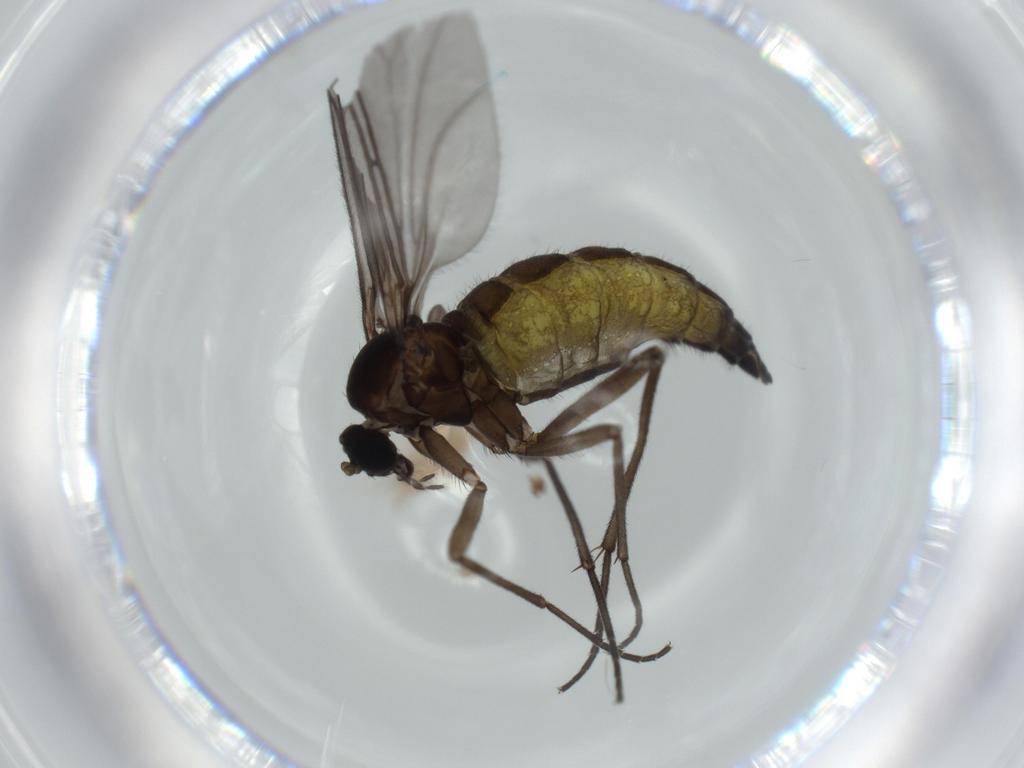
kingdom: Animalia
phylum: Arthropoda
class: Insecta
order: Diptera
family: Sciaridae
